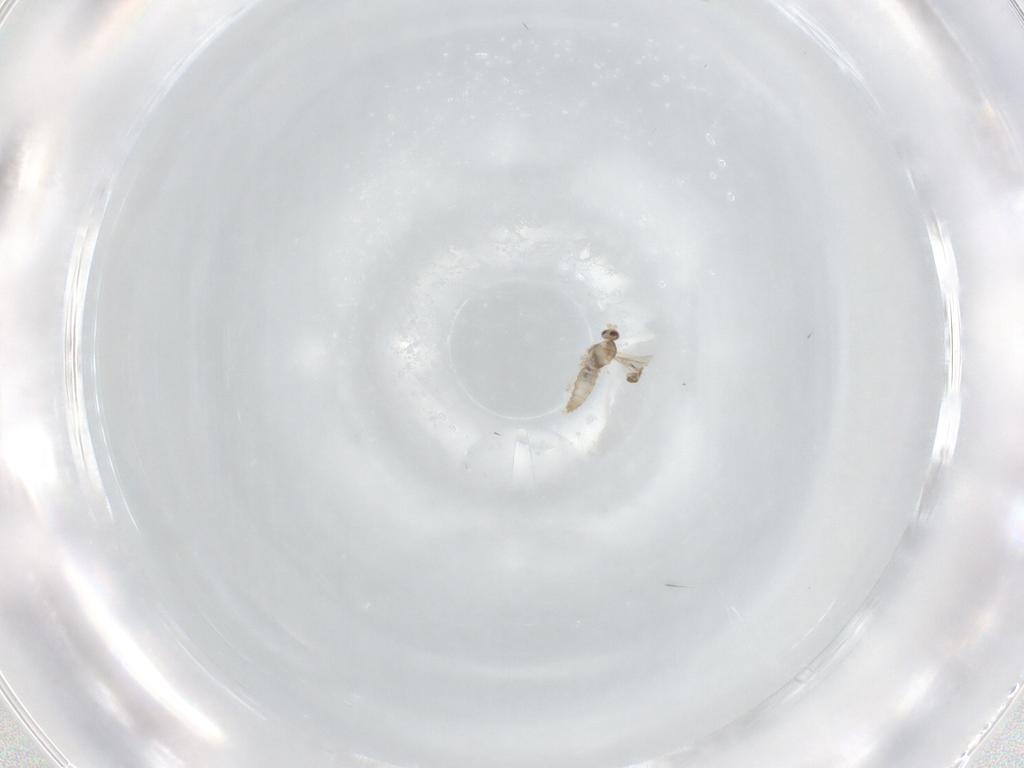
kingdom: Animalia
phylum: Arthropoda
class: Insecta
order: Diptera
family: Cecidomyiidae
